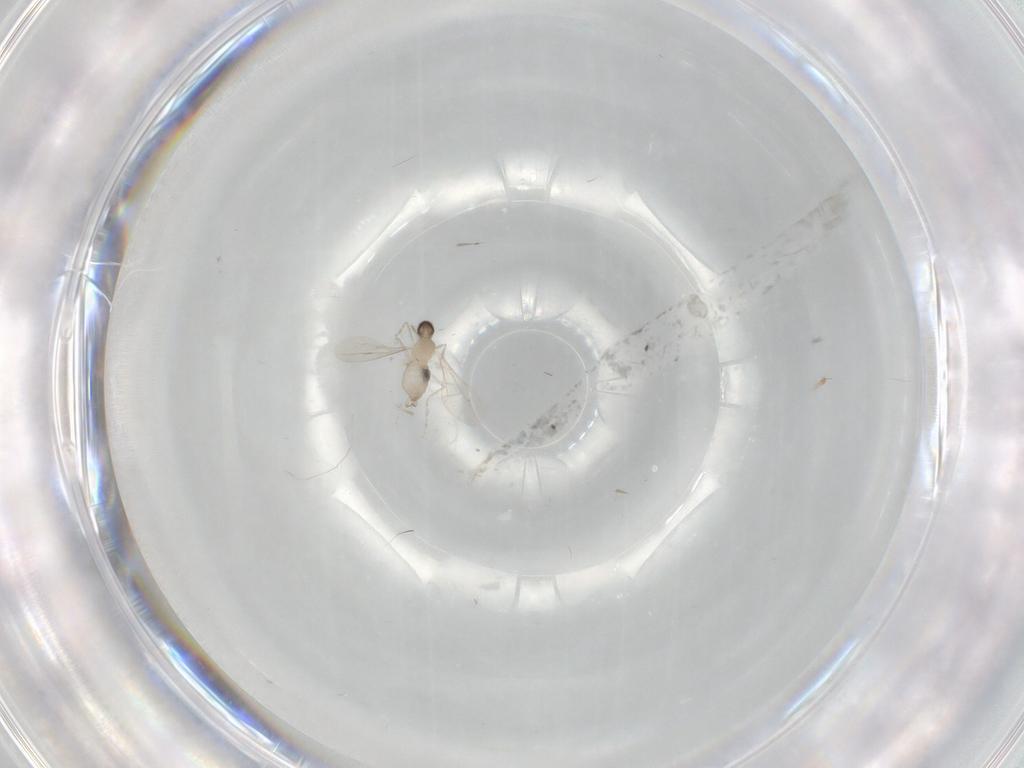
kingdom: Animalia
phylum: Arthropoda
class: Insecta
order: Diptera
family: Cecidomyiidae
